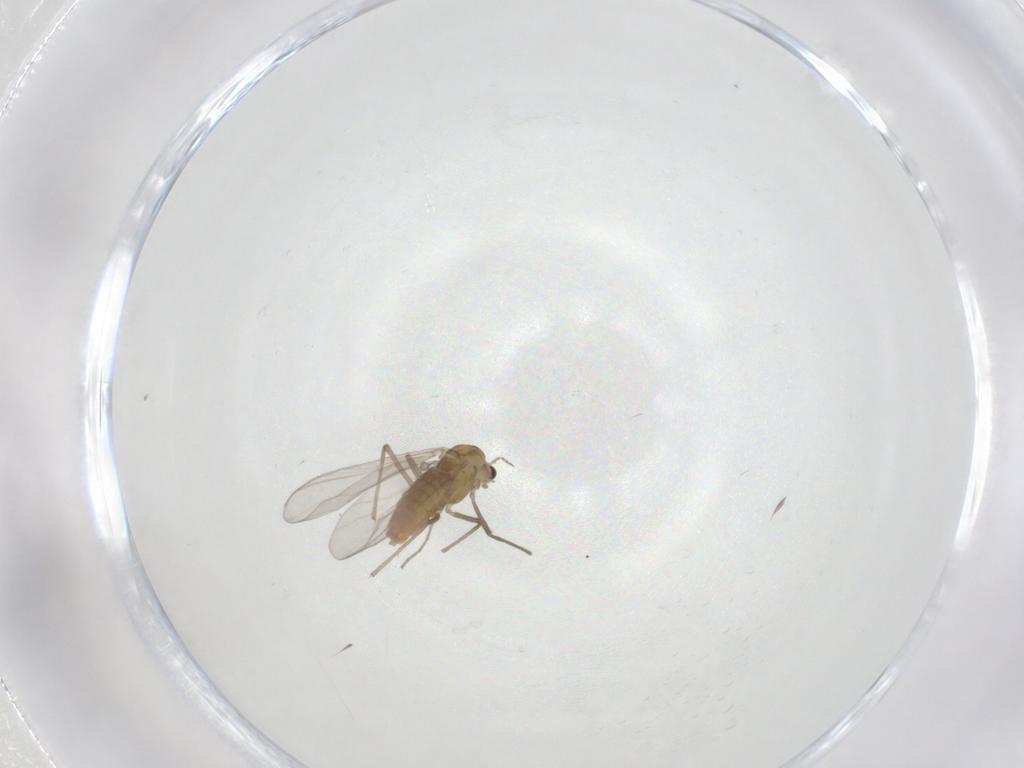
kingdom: Animalia
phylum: Arthropoda
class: Insecta
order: Diptera
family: Chironomidae
